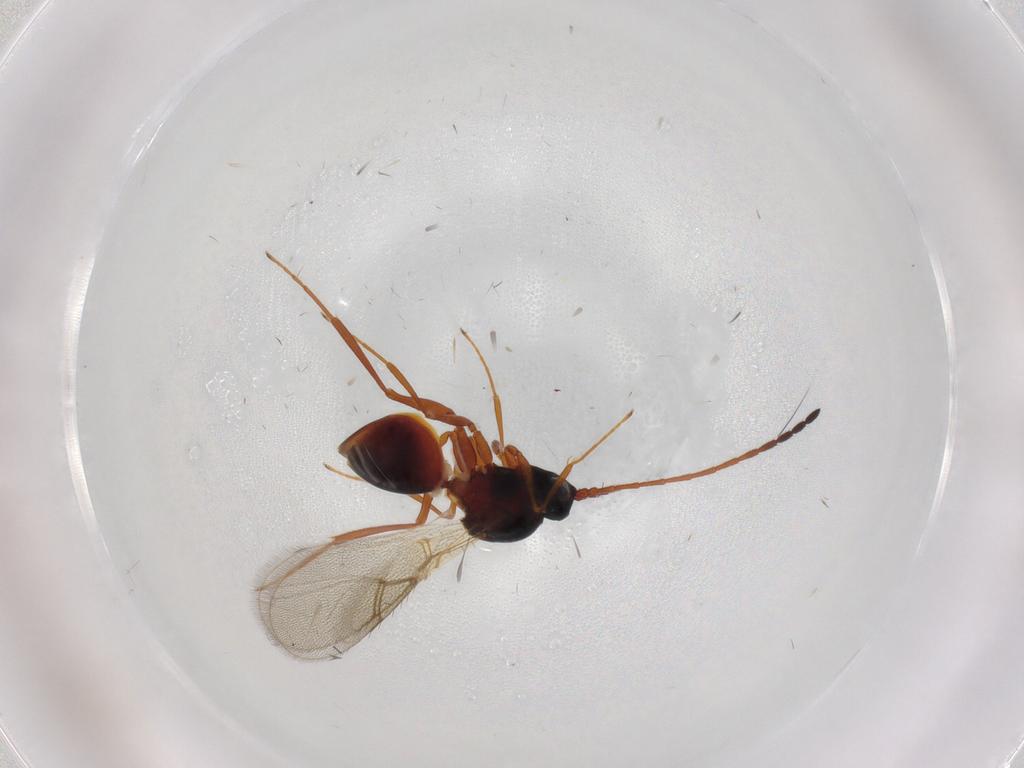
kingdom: Animalia
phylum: Arthropoda
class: Insecta
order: Hymenoptera
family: Figitidae
